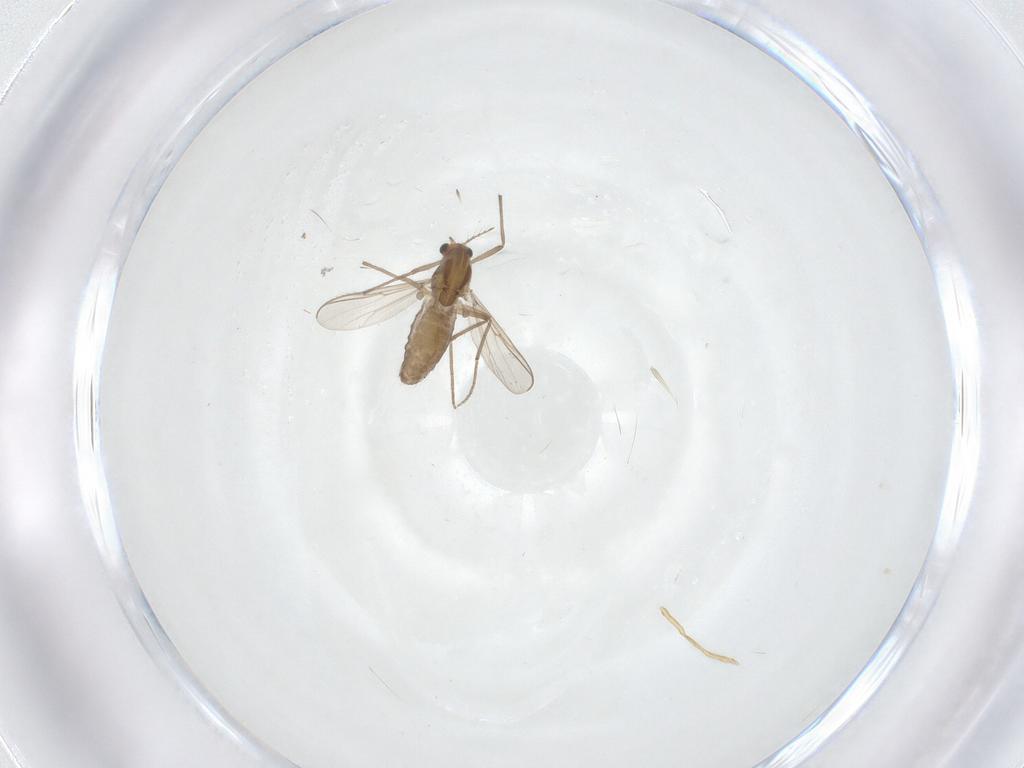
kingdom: Animalia
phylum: Arthropoda
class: Insecta
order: Diptera
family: Chironomidae
